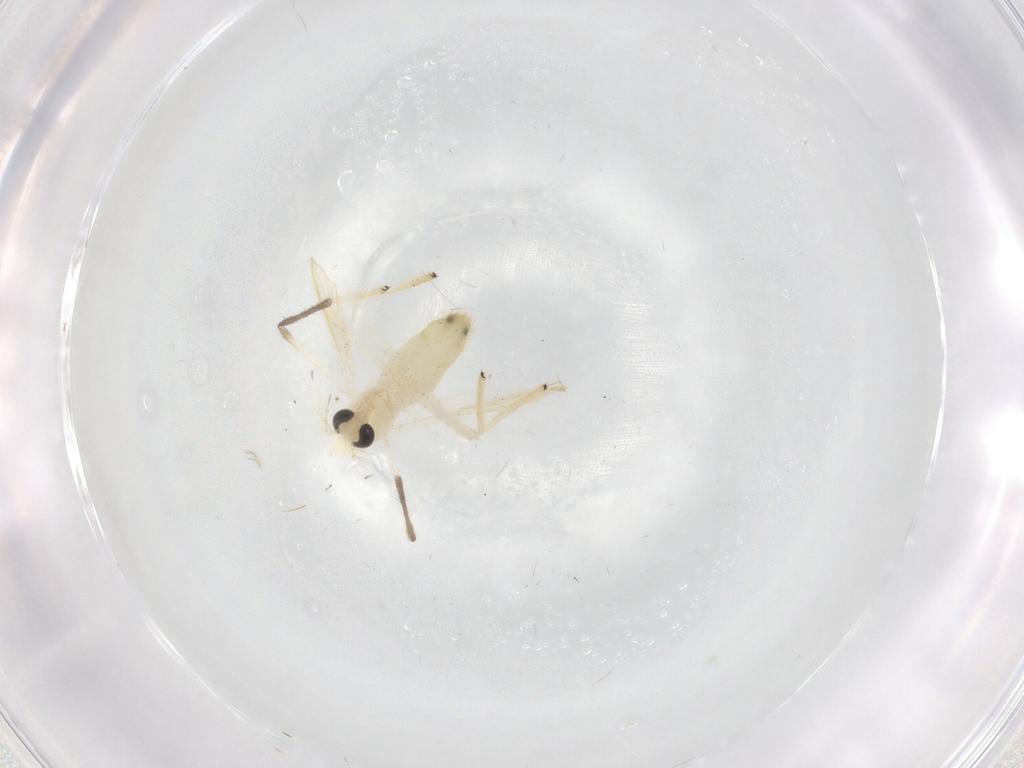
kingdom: Animalia
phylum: Arthropoda
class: Insecta
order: Diptera
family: Chironomidae
